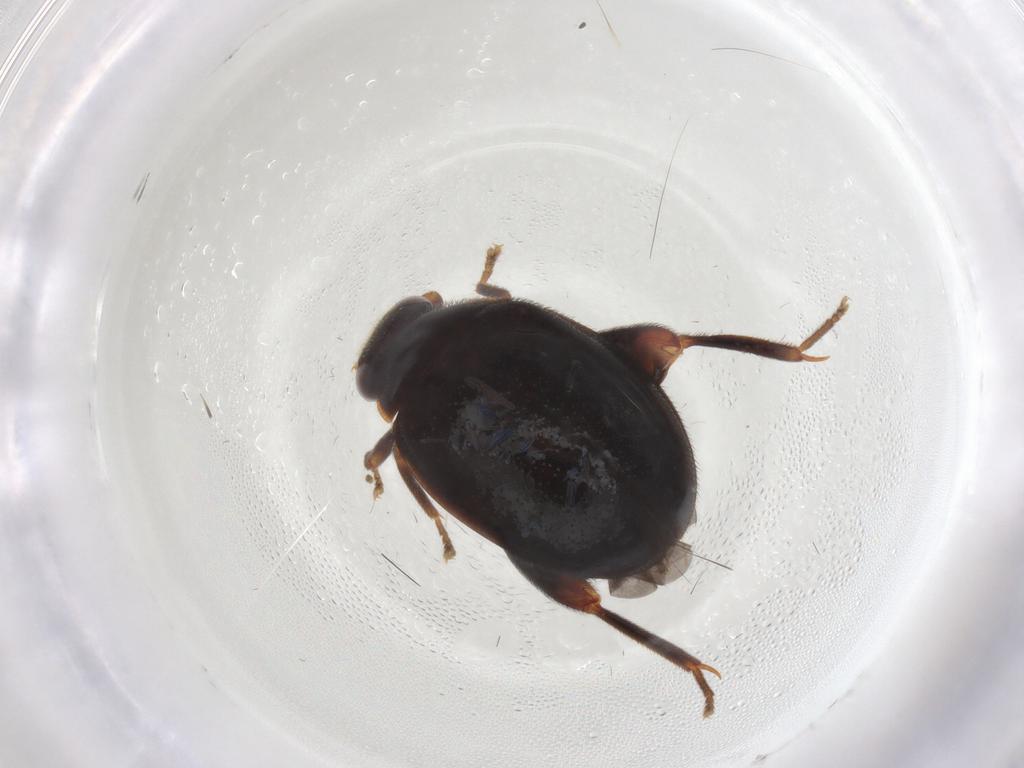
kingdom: Animalia
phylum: Arthropoda
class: Insecta
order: Coleoptera
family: Scirtidae
